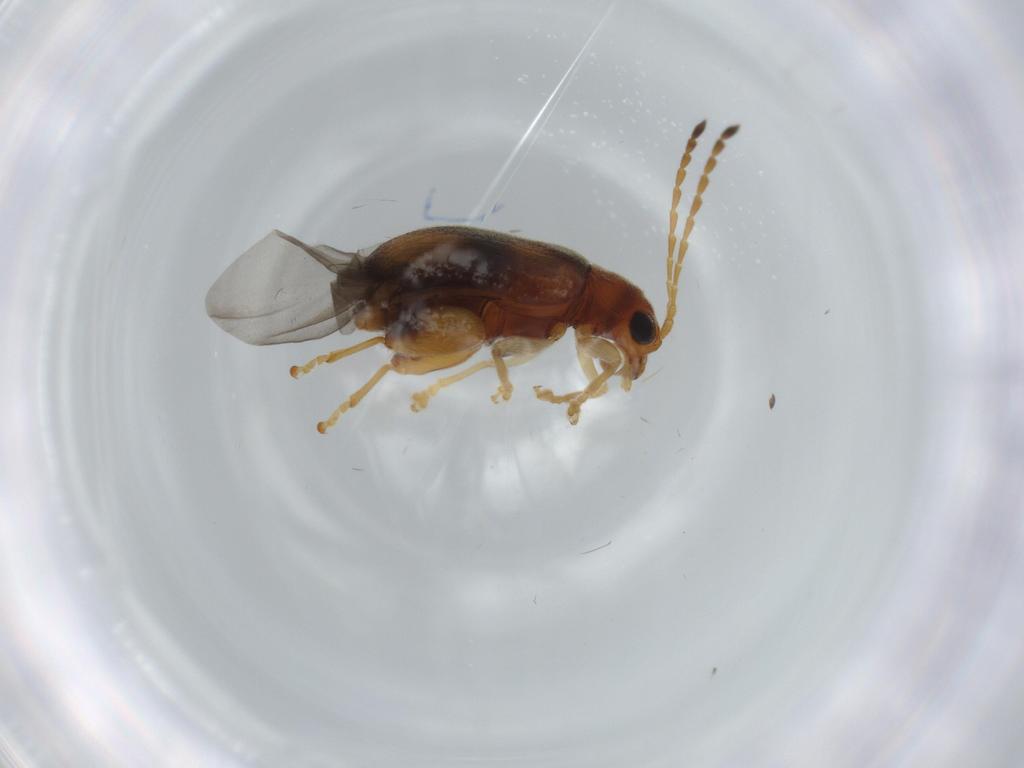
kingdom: Animalia
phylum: Arthropoda
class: Insecta
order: Coleoptera
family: Chrysomelidae
